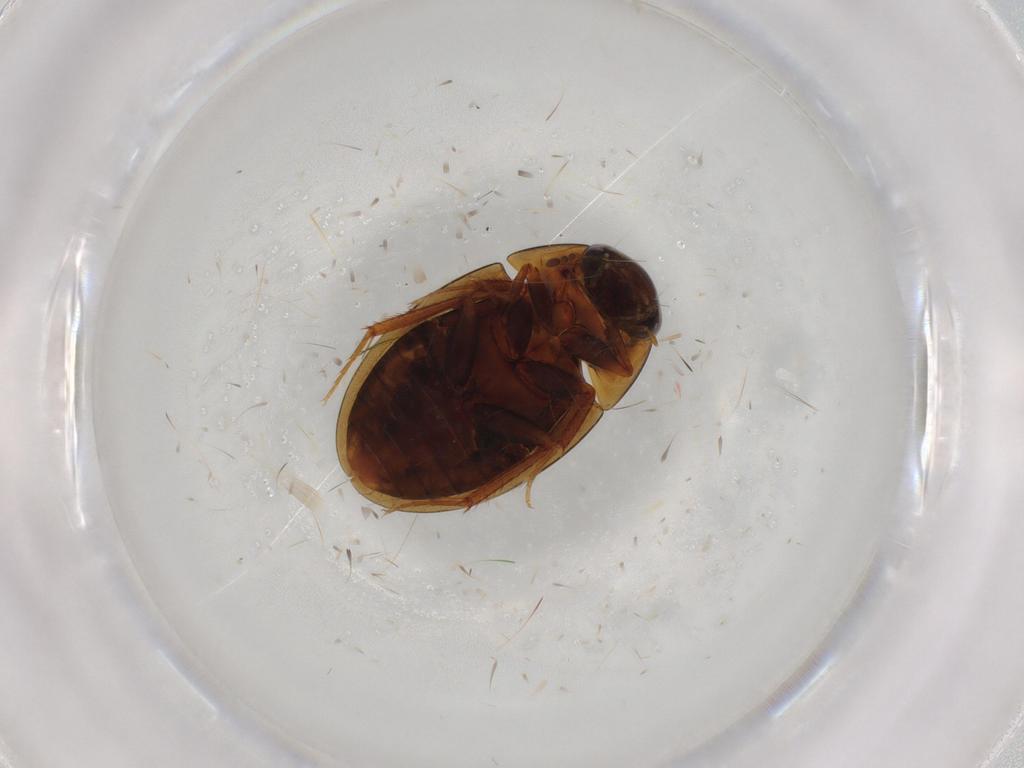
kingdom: Animalia
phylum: Arthropoda
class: Insecta
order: Coleoptera
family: Hydrophilidae
